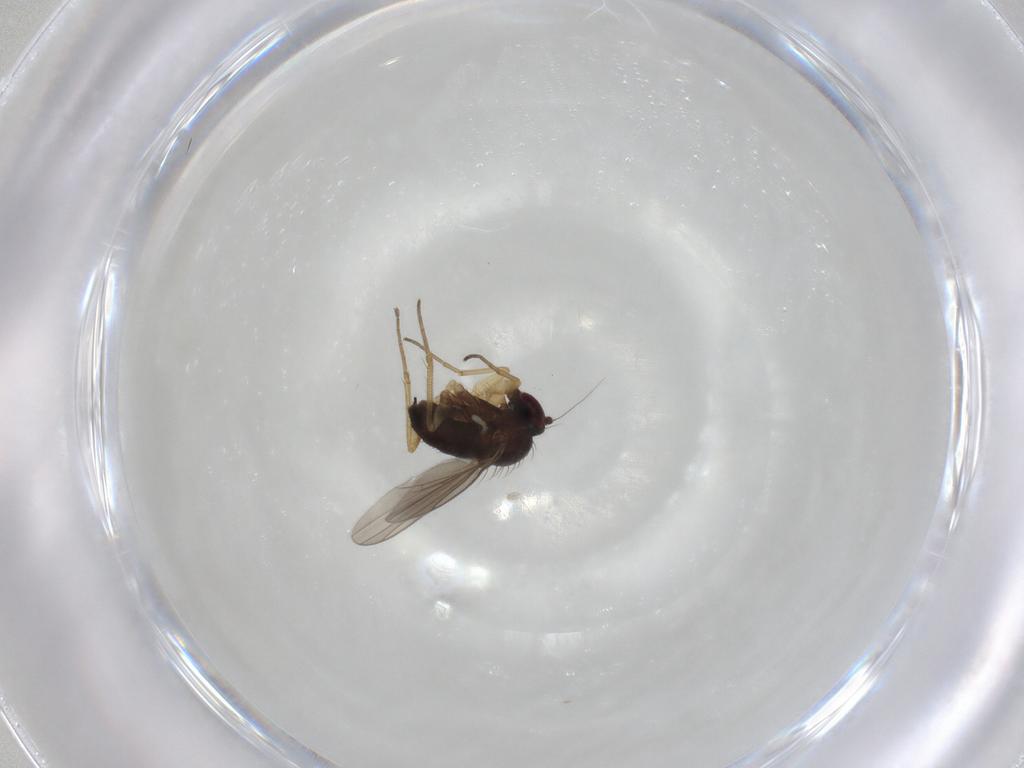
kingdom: Animalia
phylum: Arthropoda
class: Insecta
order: Diptera
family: Dolichopodidae
